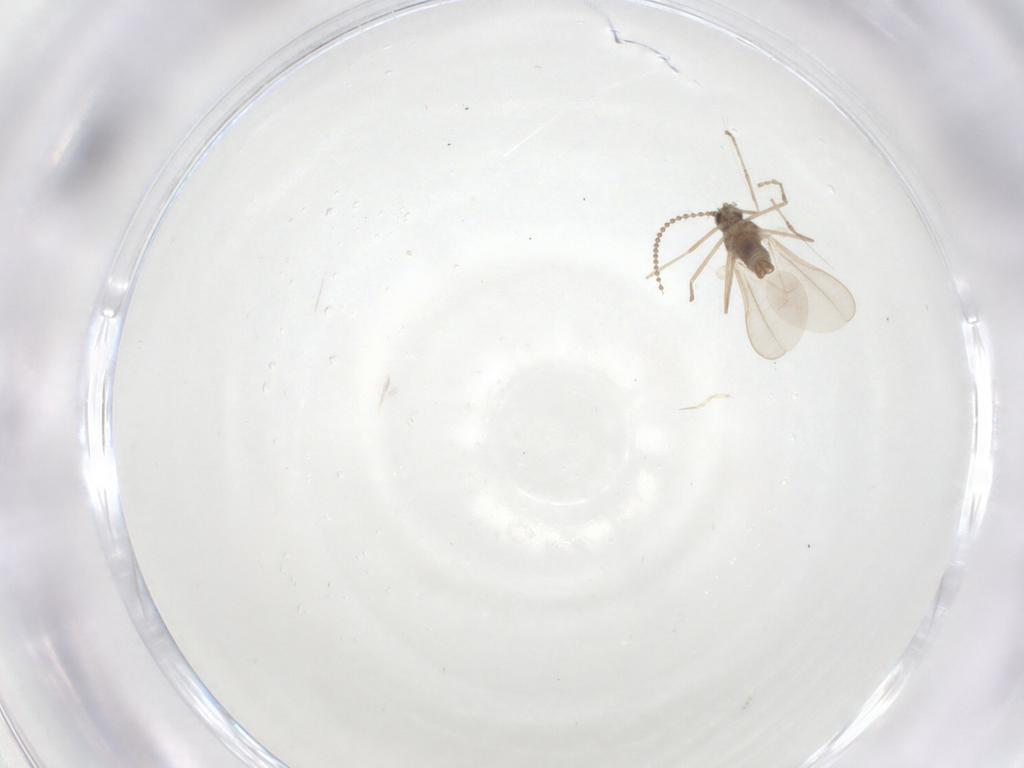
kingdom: Animalia
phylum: Arthropoda
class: Insecta
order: Diptera
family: Cecidomyiidae
